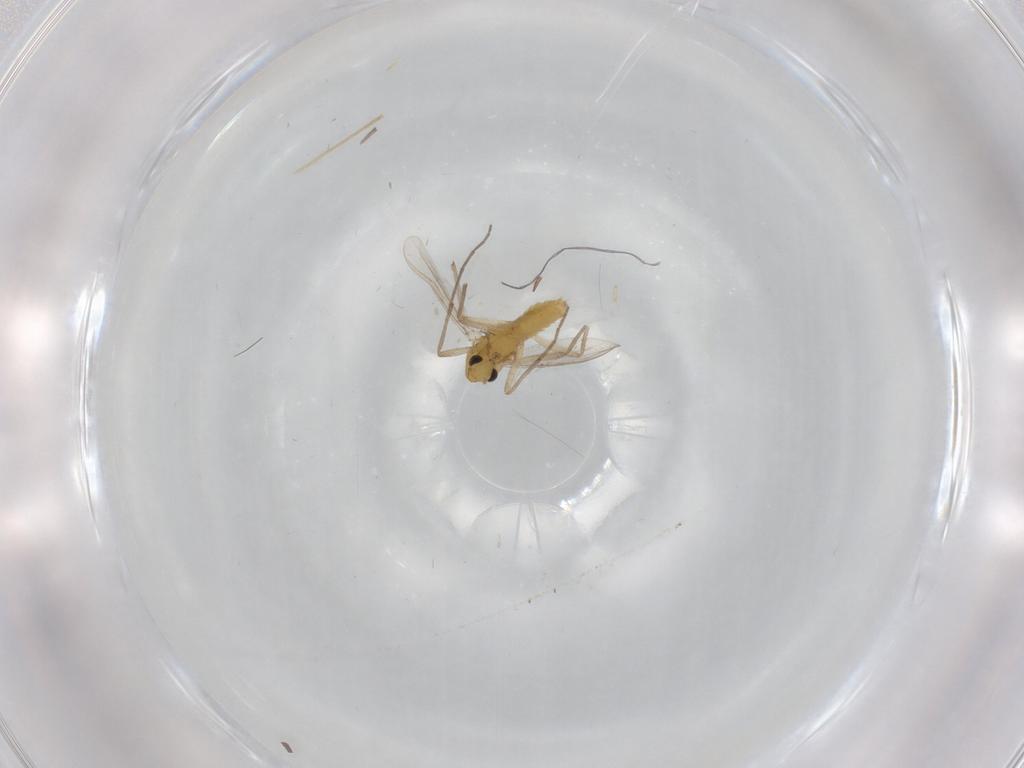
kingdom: Animalia
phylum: Arthropoda
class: Insecta
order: Diptera
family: Chironomidae
